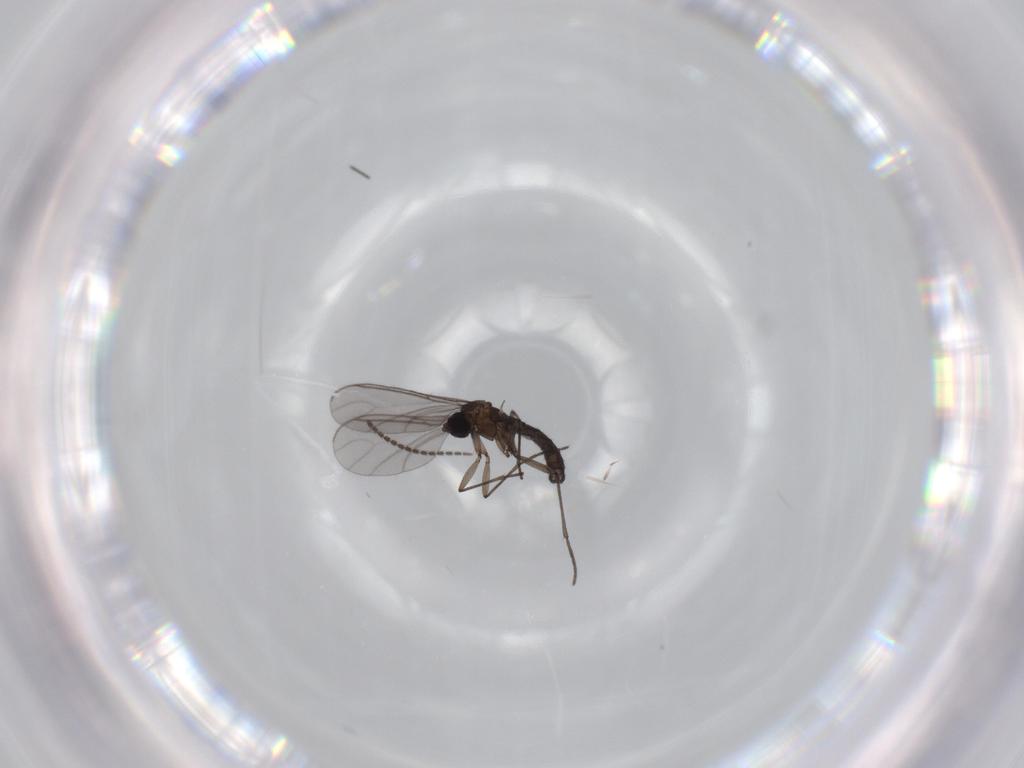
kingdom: Animalia
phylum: Arthropoda
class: Insecta
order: Diptera
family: Sciaridae
